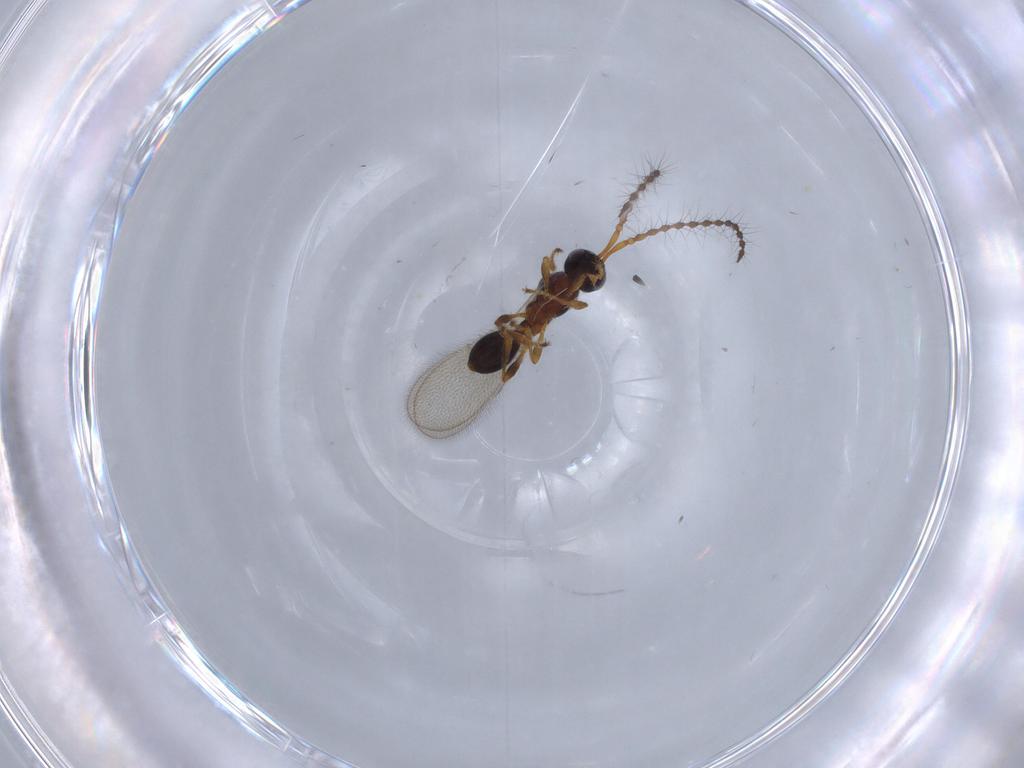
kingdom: Animalia
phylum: Arthropoda
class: Insecta
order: Hymenoptera
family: Diapriidae
